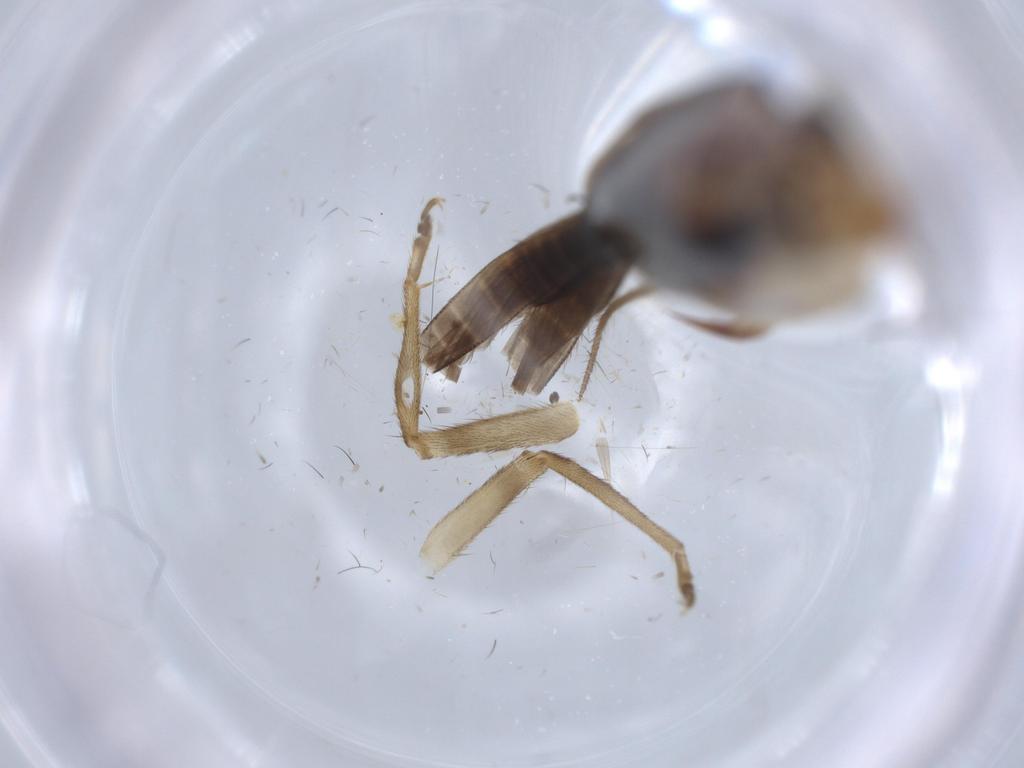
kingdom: Animalia
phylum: Arthropoda
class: Insecta
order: Orthoptera
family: Trigonidiidae
